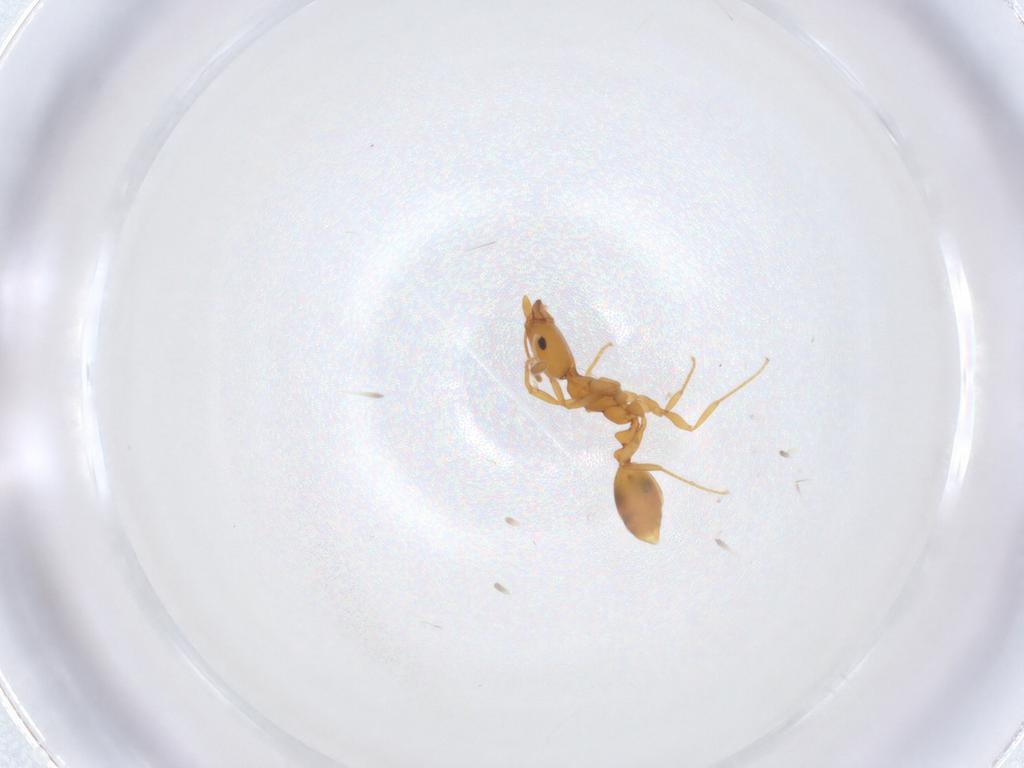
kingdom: Animalia
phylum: Arthropoda
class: Insecta
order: Hymenoptera
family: Formicidae
